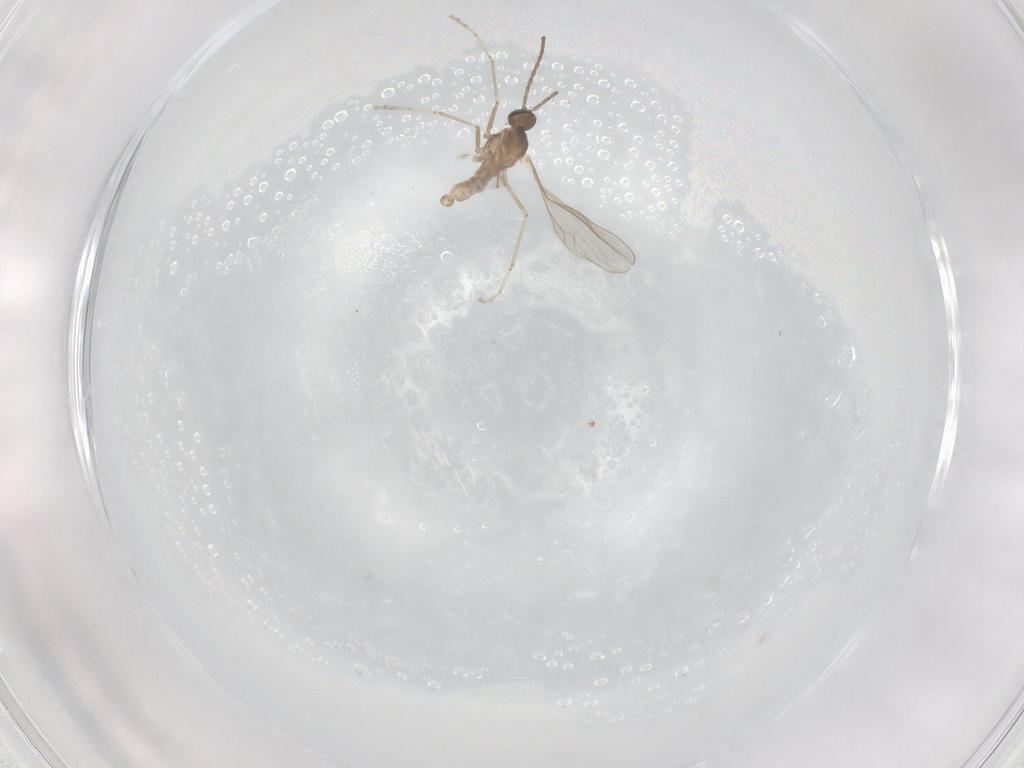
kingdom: Animalia
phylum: Arthropoda
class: Insecta
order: Diptera
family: Cecidomyiidae
